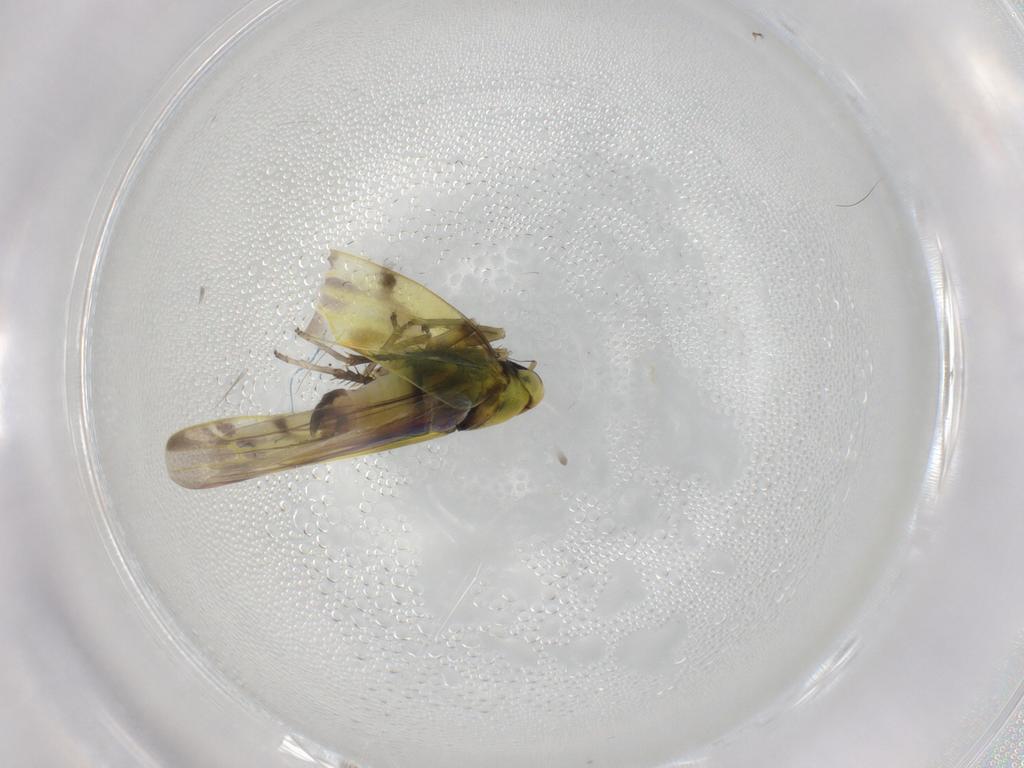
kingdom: Animalia
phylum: Arthropoda
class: Insecta
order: Hemiptera
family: Cicadellidae
